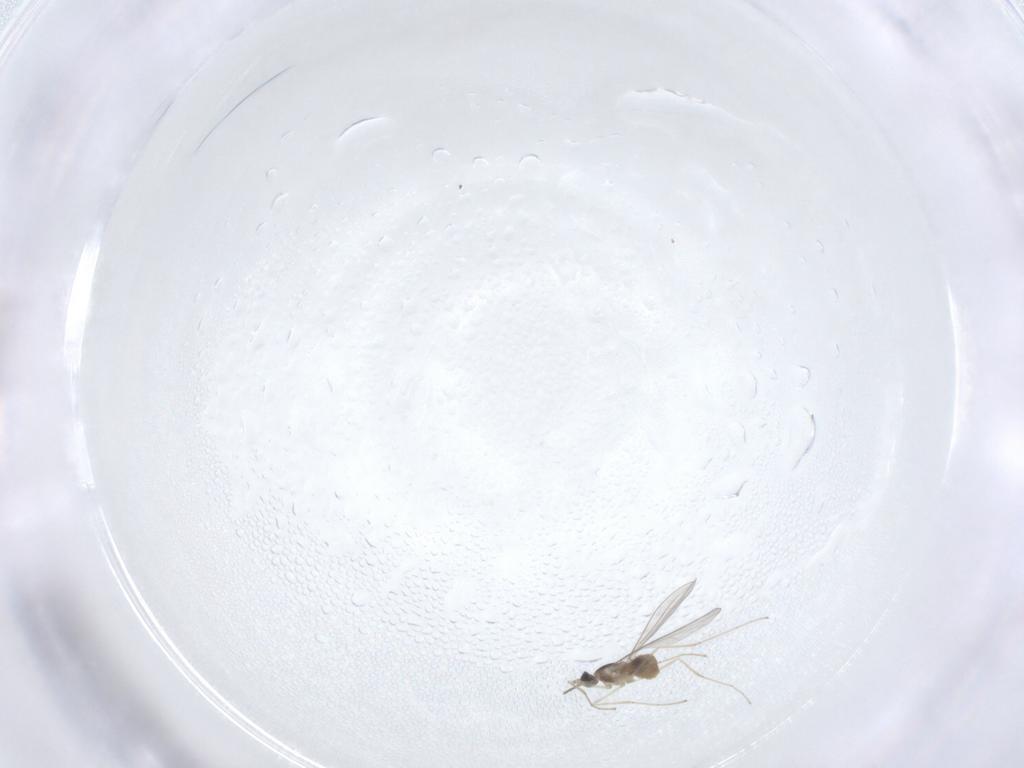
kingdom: Animalia
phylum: Arthropoda
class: Insecta
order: Diptera
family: Cecidomyiidae
